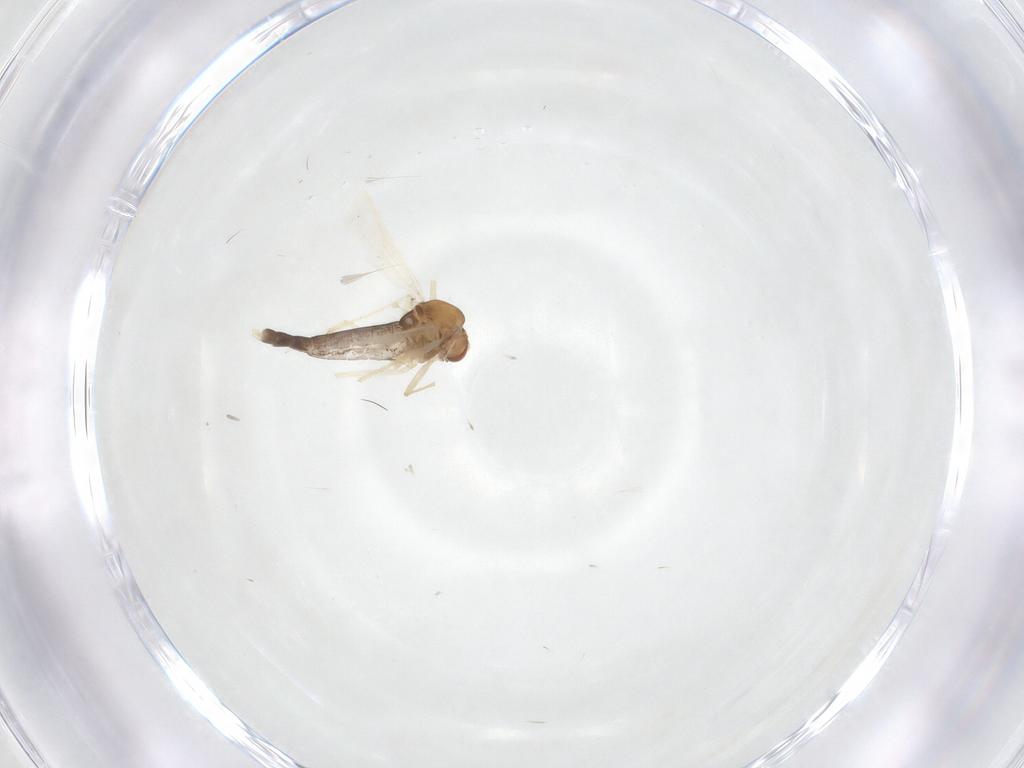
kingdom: Animalia
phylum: Arthropoda
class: Insecta
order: Diptera
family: Chironomidae
